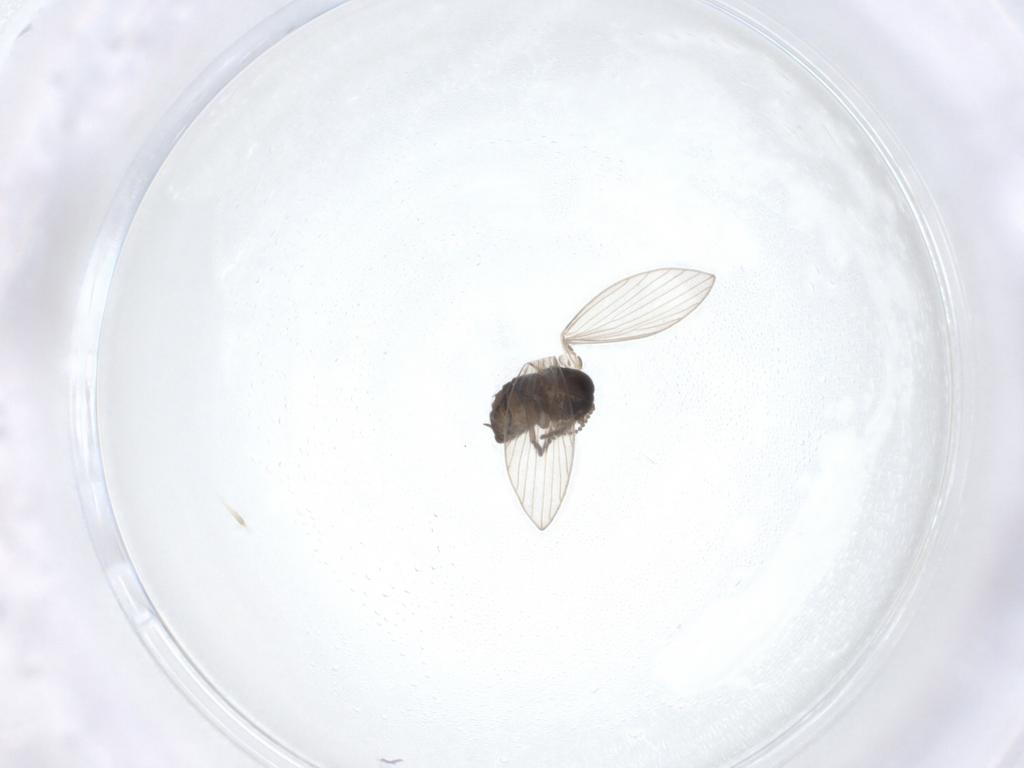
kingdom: Animalia
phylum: Arthropoda
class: Insecta
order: Diptera
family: Psychodidae
